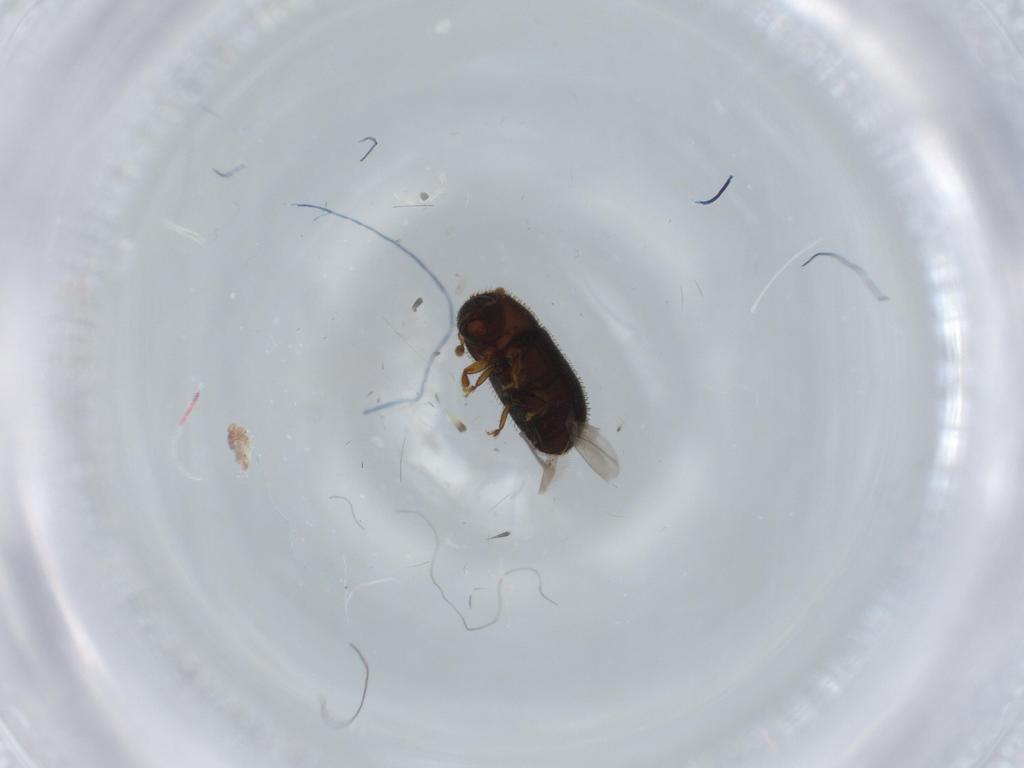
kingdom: Animalia
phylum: Arthropoda
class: Insecta
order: Coleoptera
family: Curculionidae
